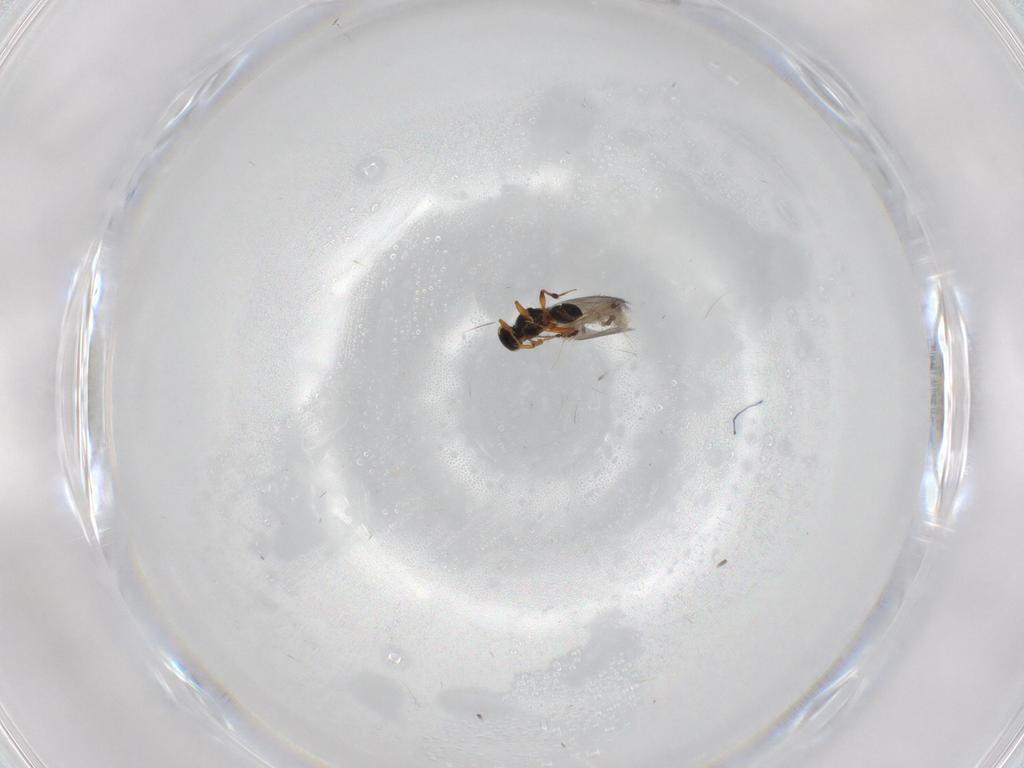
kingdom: Animalia
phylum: Arthropoda
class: Insecta
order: Hymenoptera
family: Platygastridae
